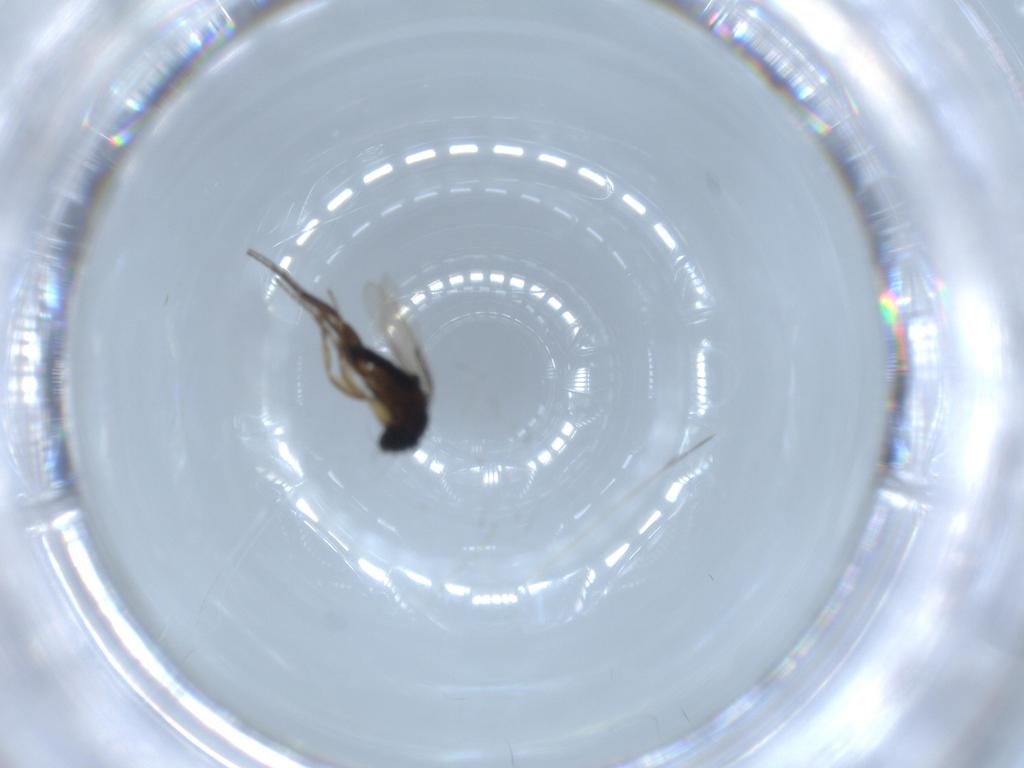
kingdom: Animalia
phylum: Arthropoda
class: Insecta
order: Diptera
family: Phoridae
